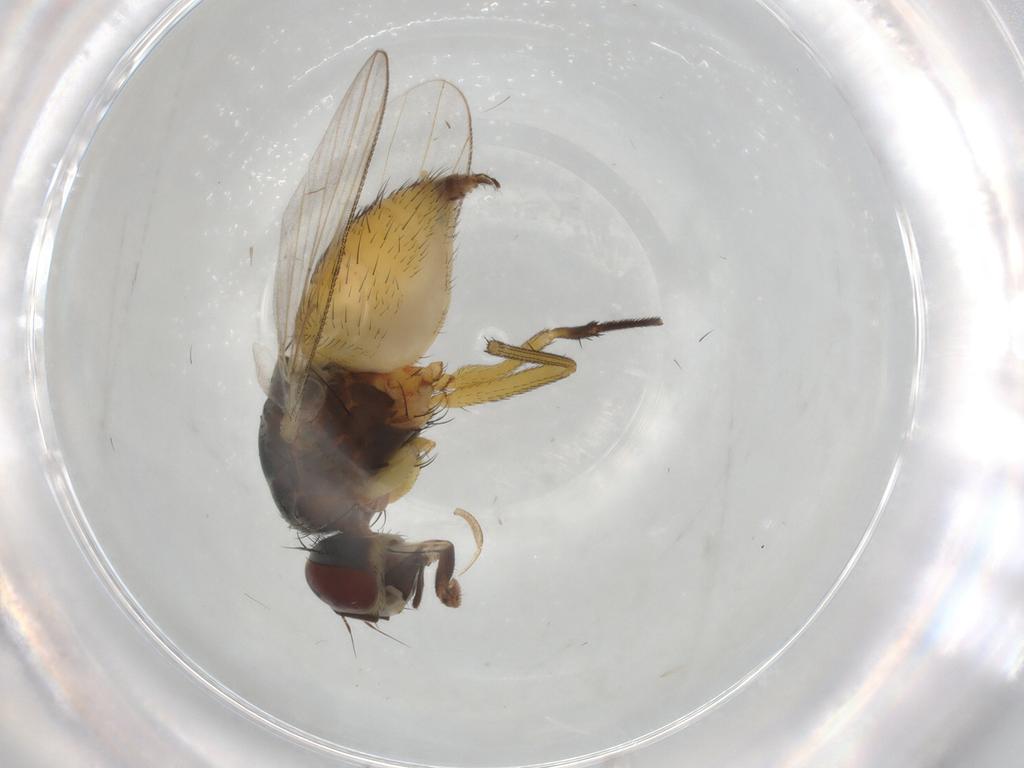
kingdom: Animalia
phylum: Arthropoda
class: Insecta
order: Diptera
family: Muscidae
